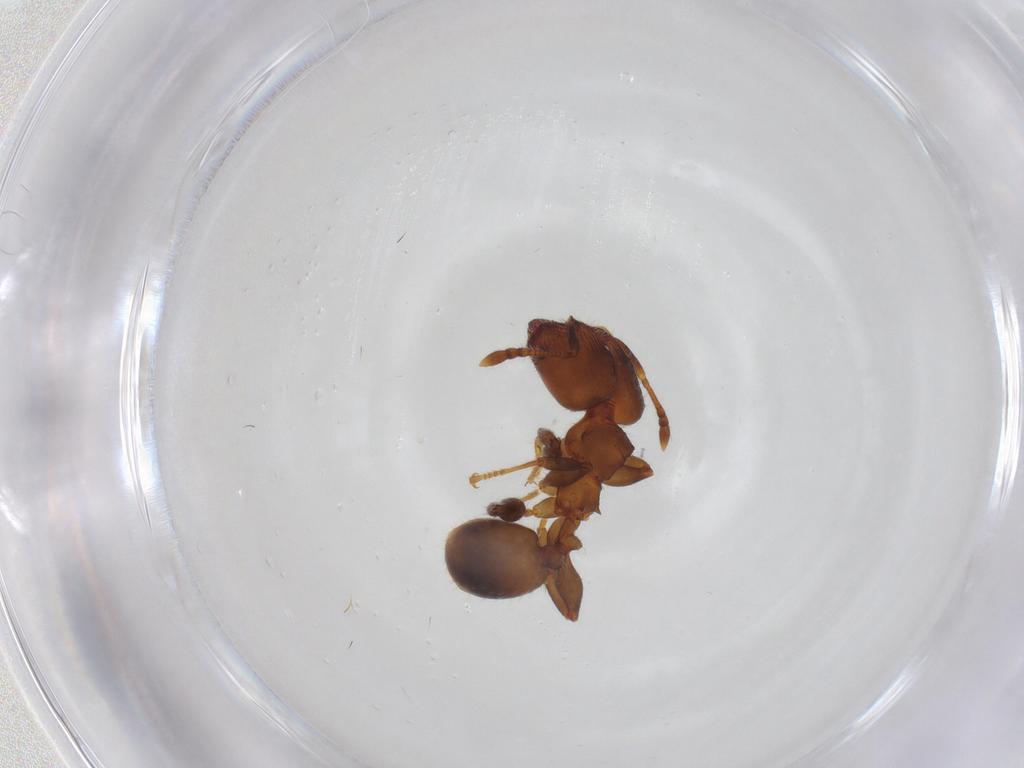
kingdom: Animalia
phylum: Arthropoda
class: Insecta
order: Hymenoptera
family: Formicidae
